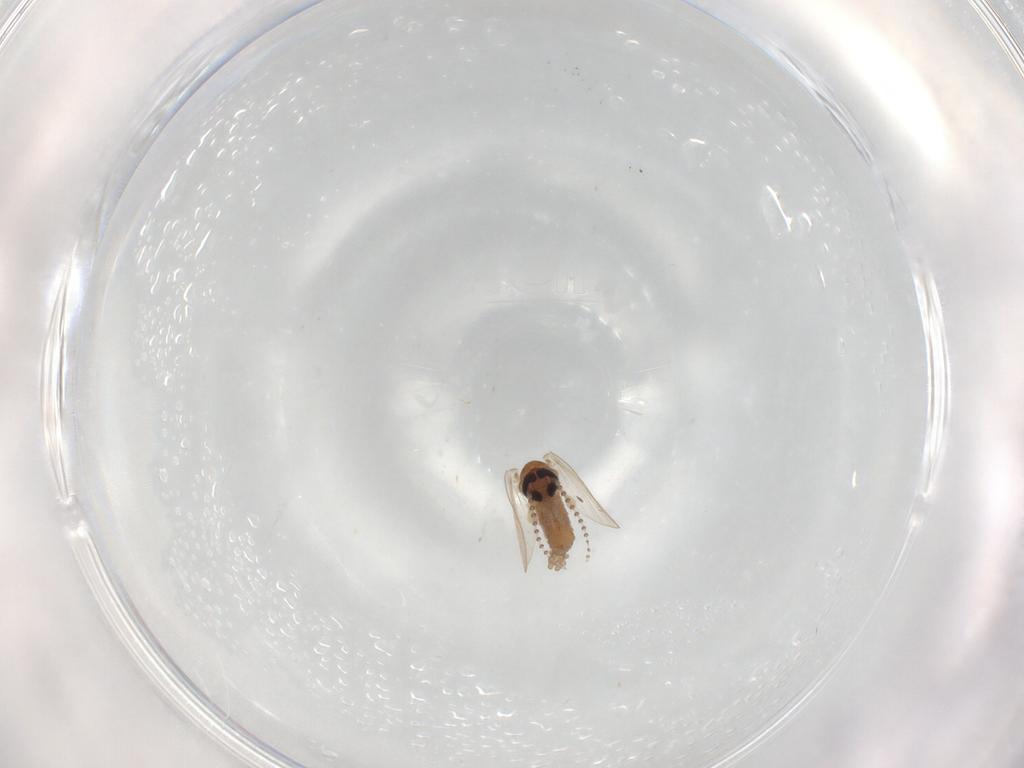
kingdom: Animalia
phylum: Arthropoda
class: Insecta
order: Diptera
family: Psychodidae
